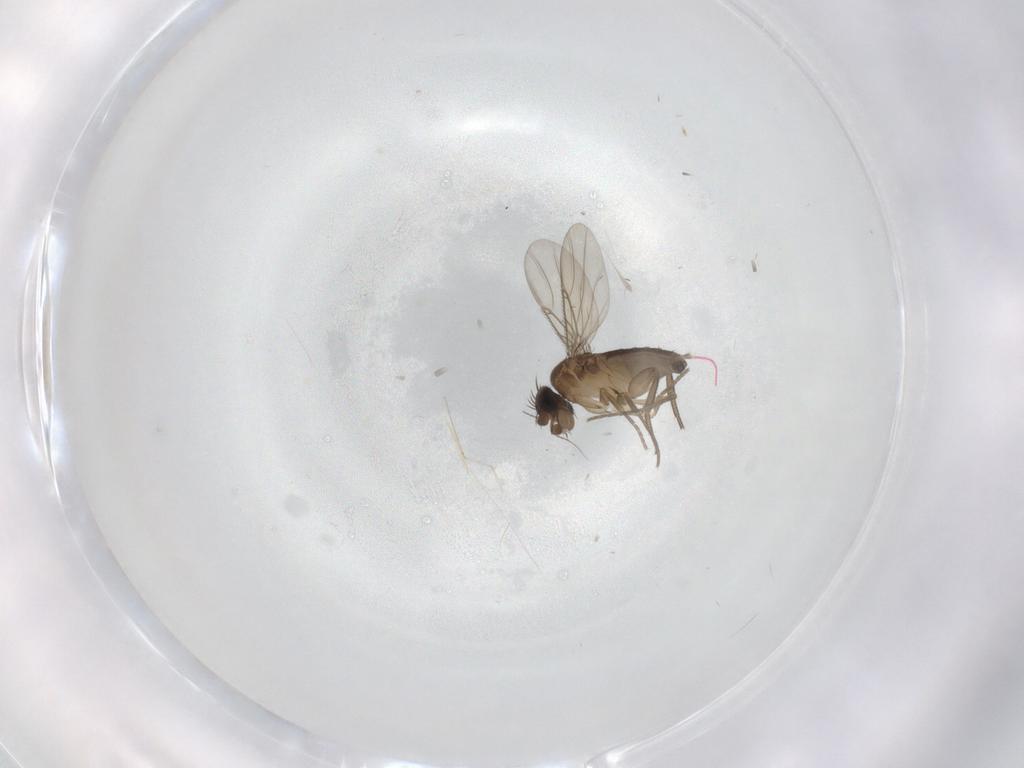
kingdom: Animalia
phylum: Arthropoda
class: Insecta
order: Diptera
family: Phoridae
